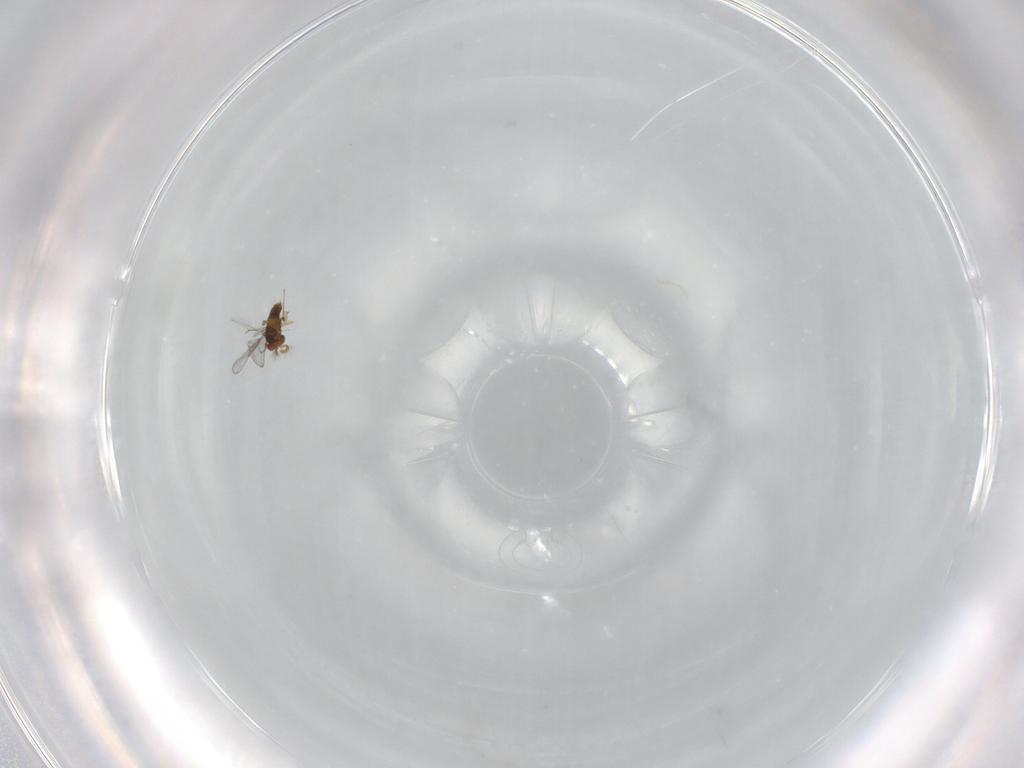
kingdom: Animalia
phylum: Arthropoda
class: Insecta
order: Hymenoptera
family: Trichogrammatidae
